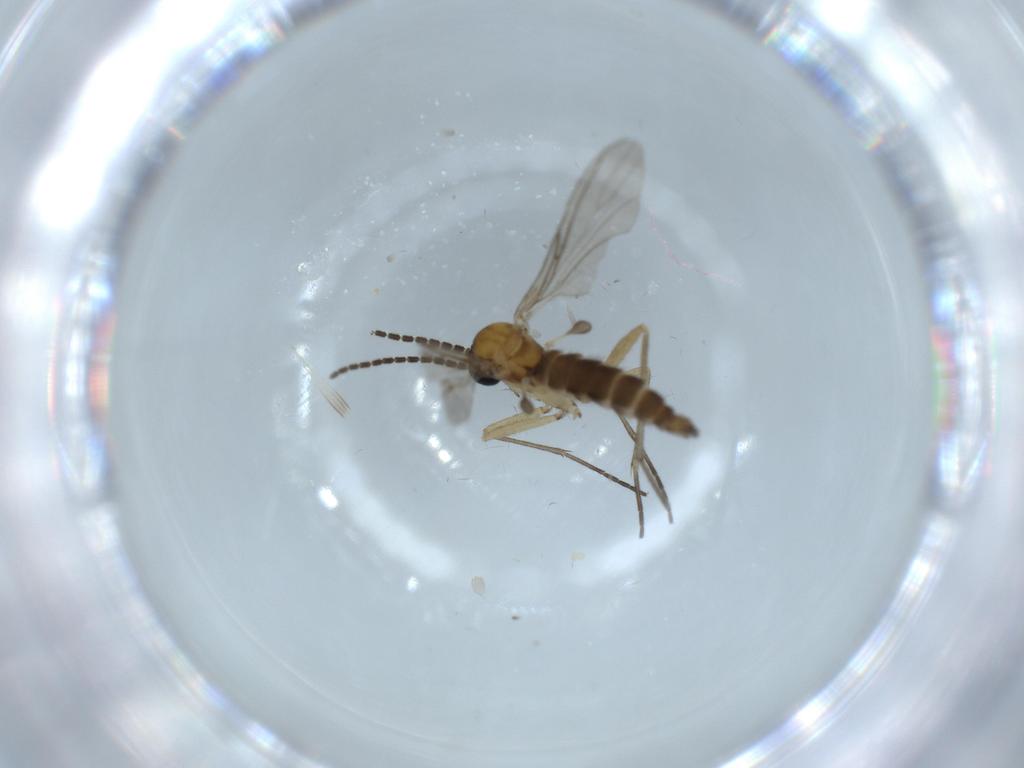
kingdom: Animalia
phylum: Arthropoda
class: Insecta
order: Diptera
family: Sciaridae
